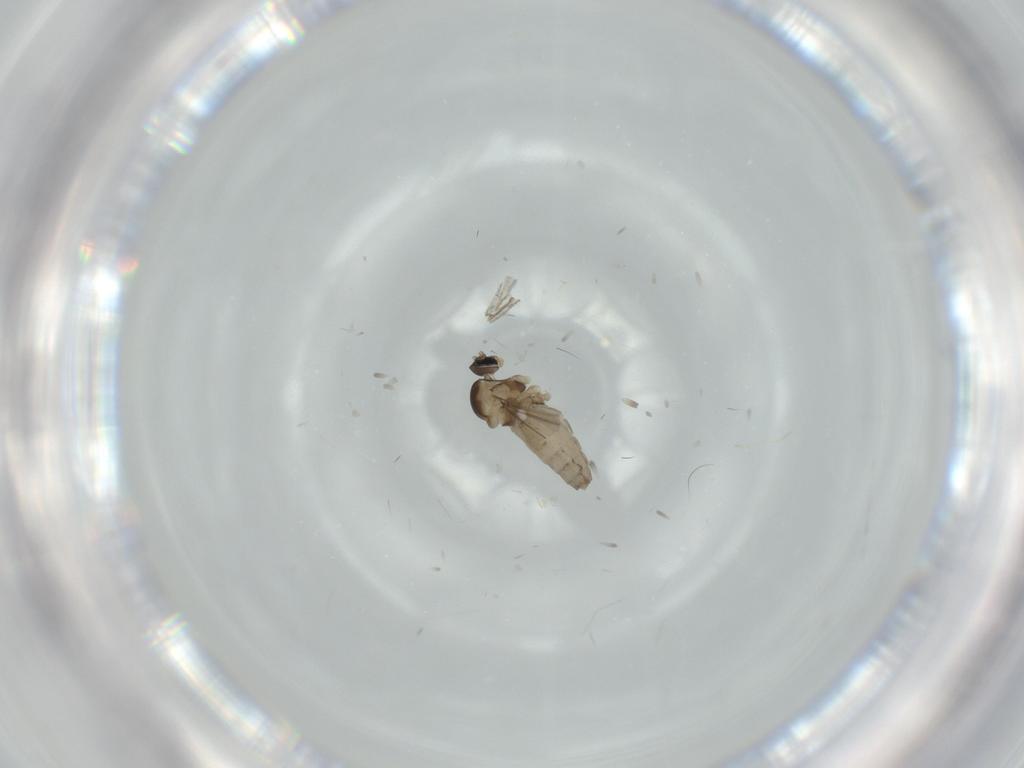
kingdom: Animalia
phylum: Arthropoda
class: Insecta
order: Diptera
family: Cecidomyiidae
